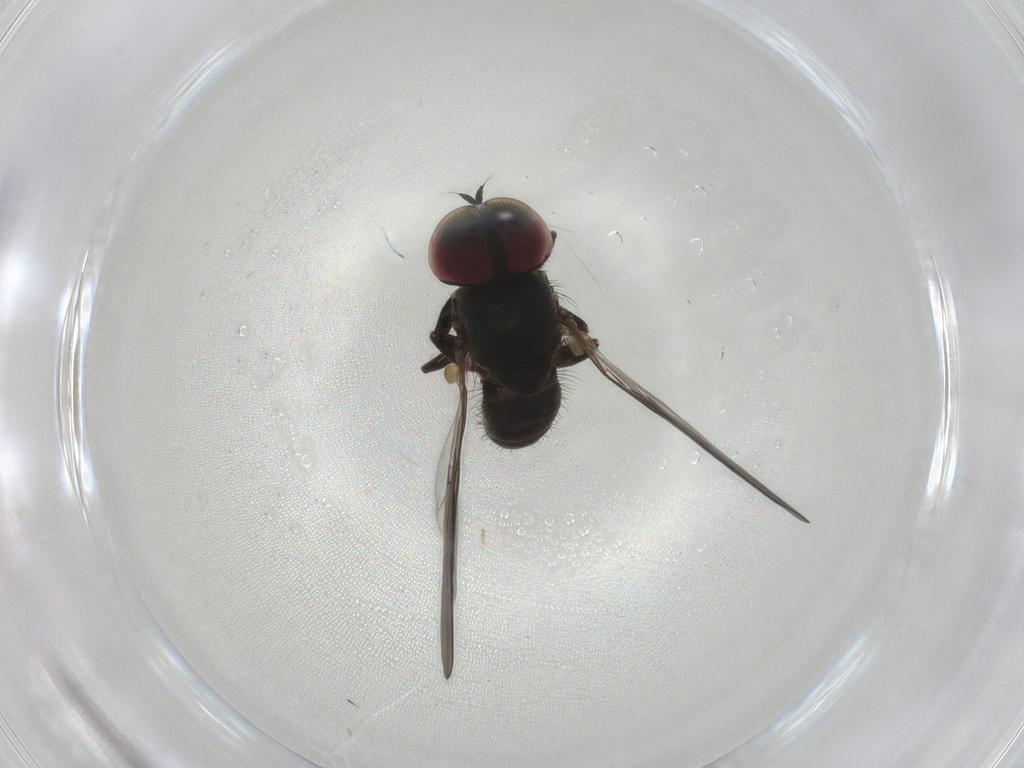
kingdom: Animalia
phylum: Arthropoda
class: Insecta
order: Diptera
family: Pipunculidae
